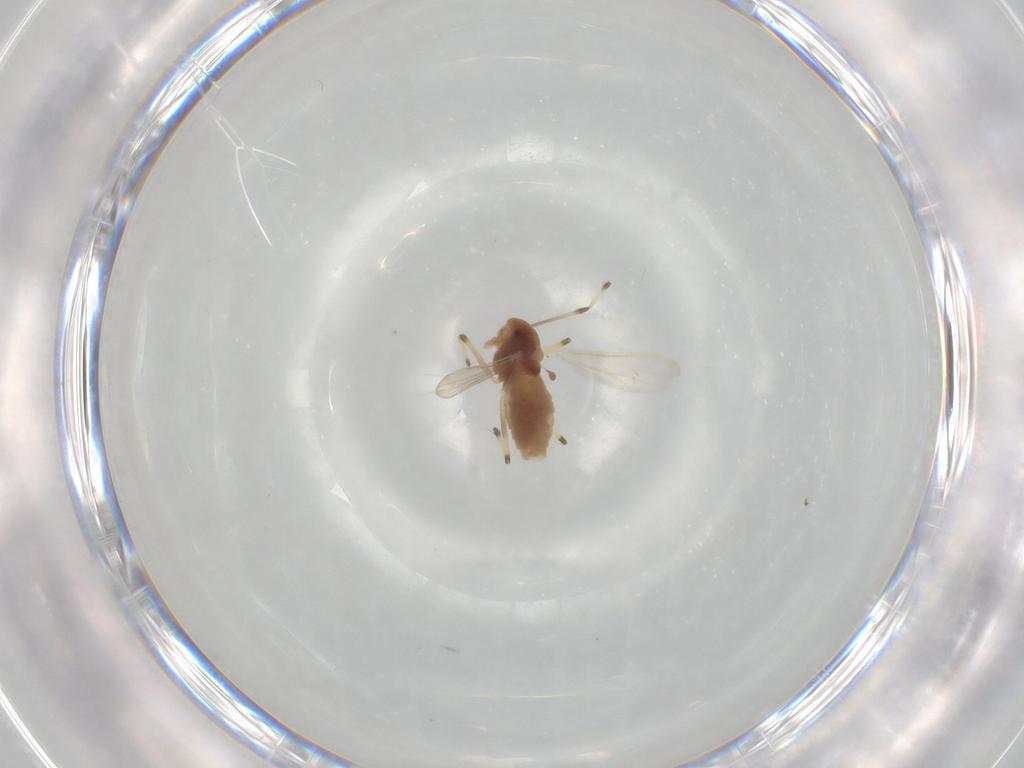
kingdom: Animalia
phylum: Arthropoda
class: Insecta
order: Diptera
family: Chironomidae
